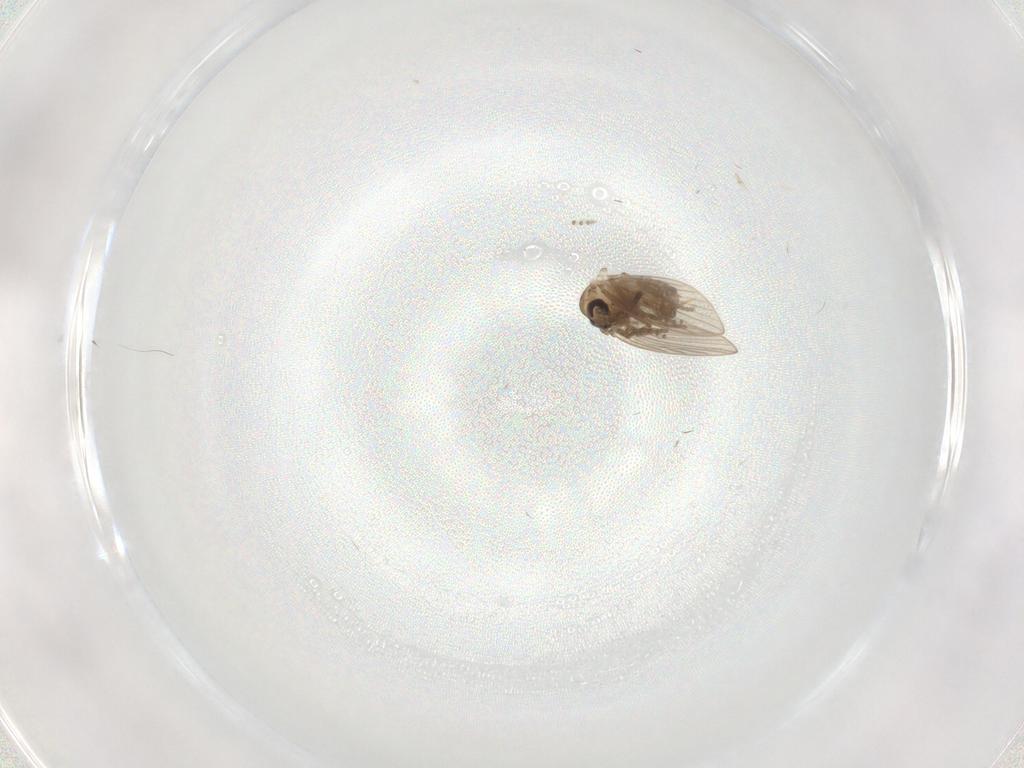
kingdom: Animalia
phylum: Arthropoda
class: Insecta
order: Diptera
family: Psychodidae
